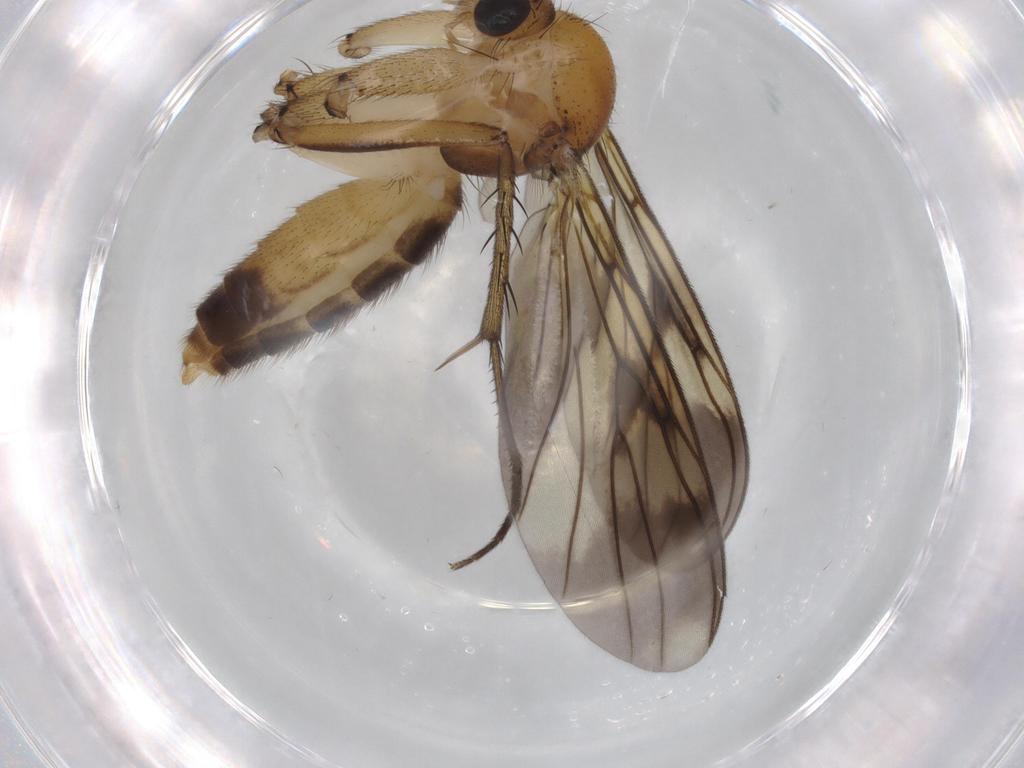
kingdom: Animalia
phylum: Arthropoda
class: Insecta
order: Diptera
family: Mycetophilidae
